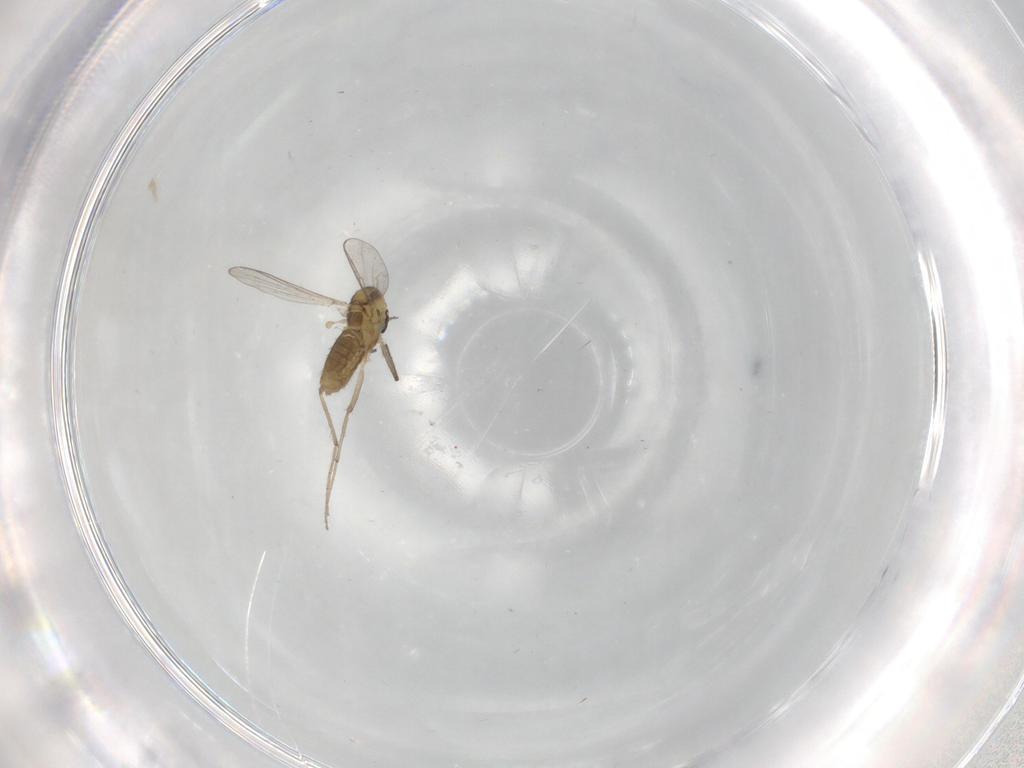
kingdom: Animalia
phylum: Arthropoda
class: Insecta
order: Diptera
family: Chironomidae
